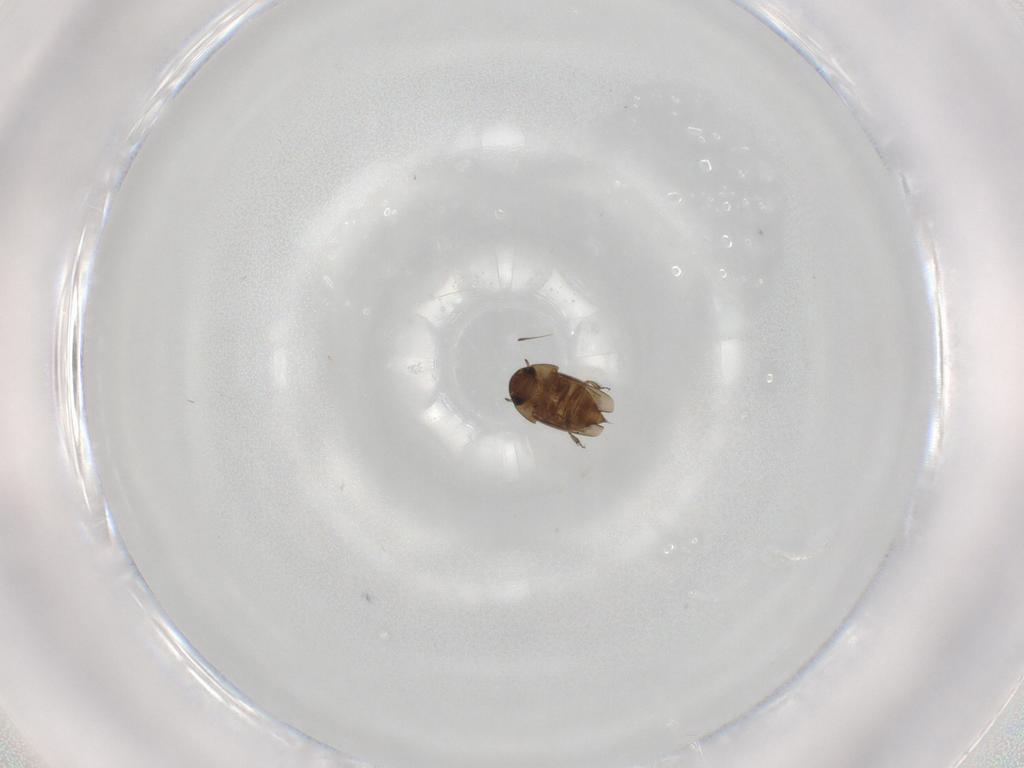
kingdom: Animalia
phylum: Arthropoda
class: Insecta
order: Coleoptera
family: Hydraenidae
